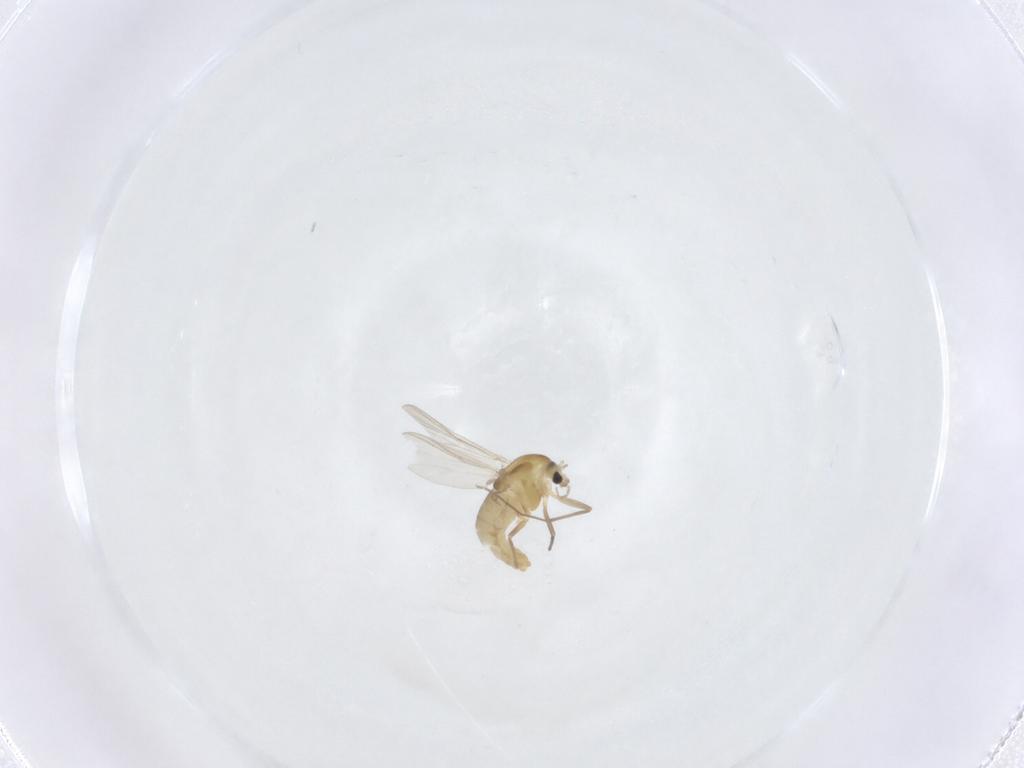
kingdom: Animalia
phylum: Arthropoda
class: Insecta
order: Diptera
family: Chironomidae
